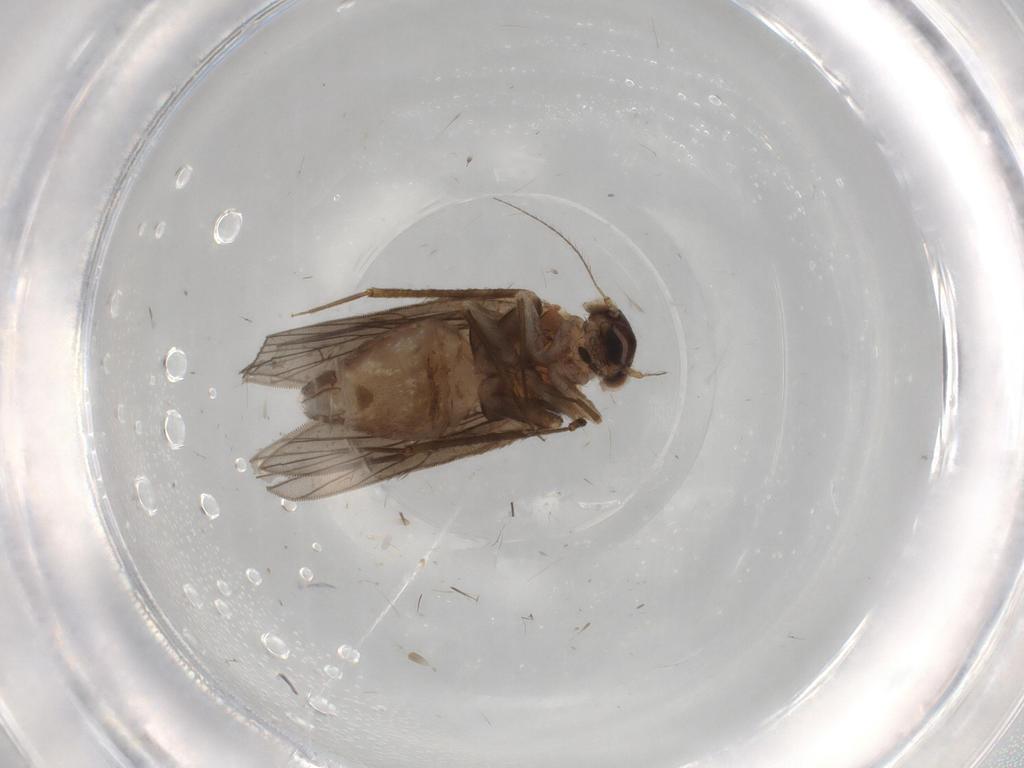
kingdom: Animalia
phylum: Arthropoda
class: Insecta
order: Psocodea
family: Lepidopsocidae
